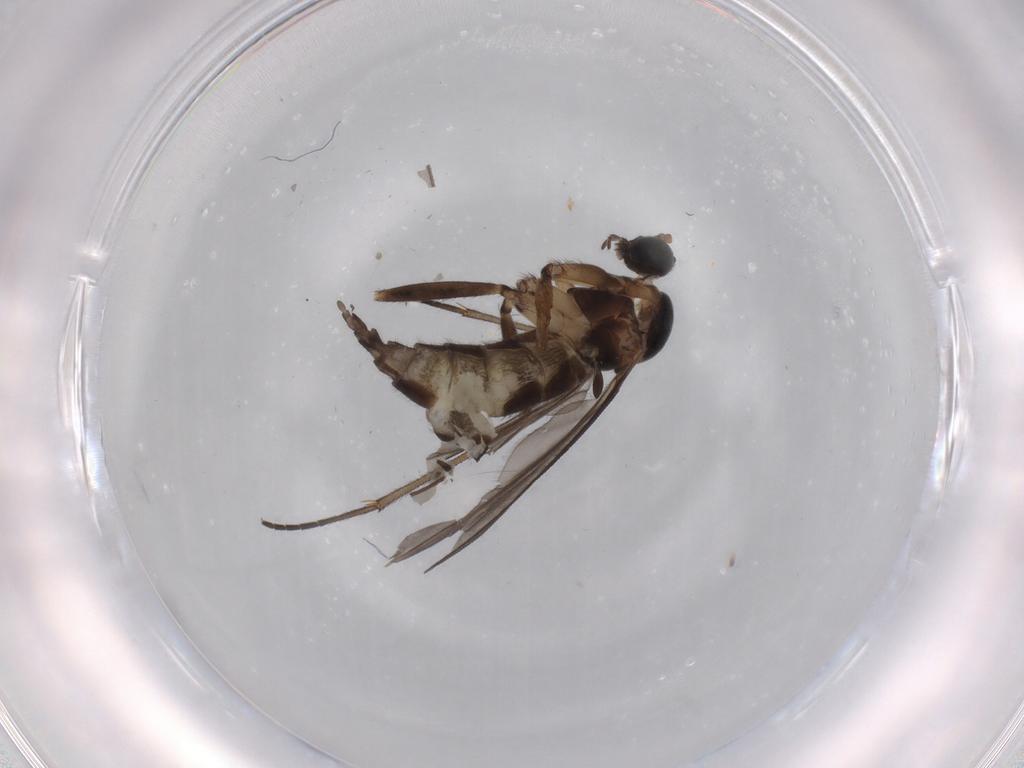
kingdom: Animalia
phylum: Arthropoda
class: Insecta
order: Diptera
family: Sciaridae
